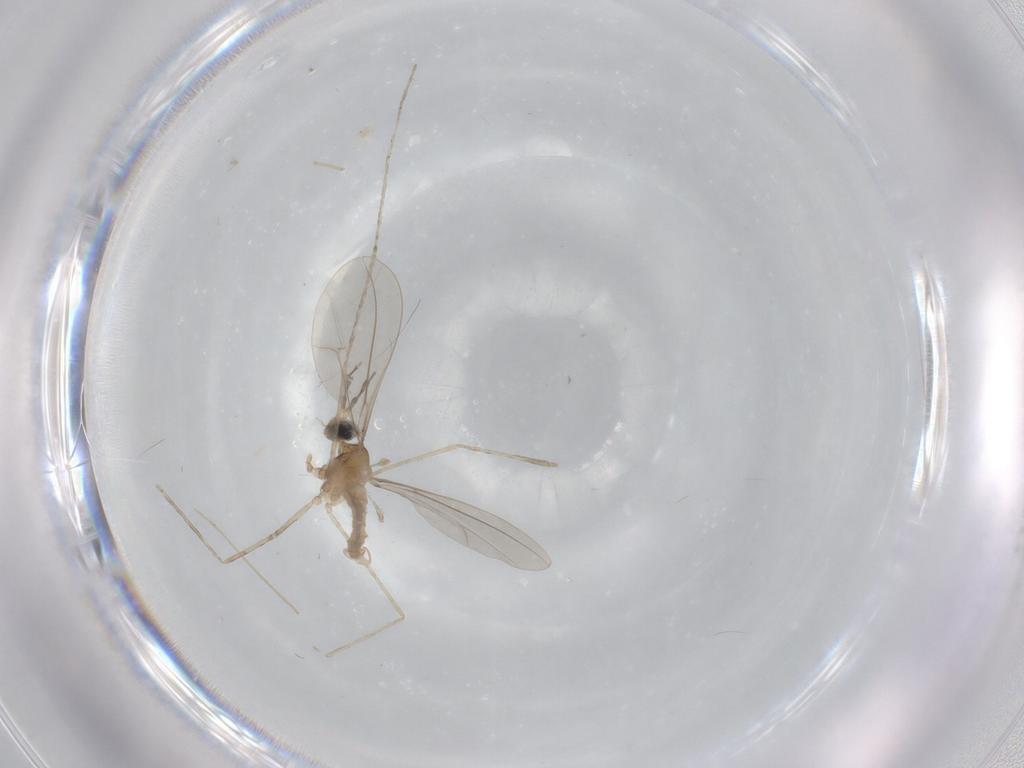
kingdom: Animalia
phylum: Arthropoda
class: Insecta
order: Diptera
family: Cecidomyiidae
